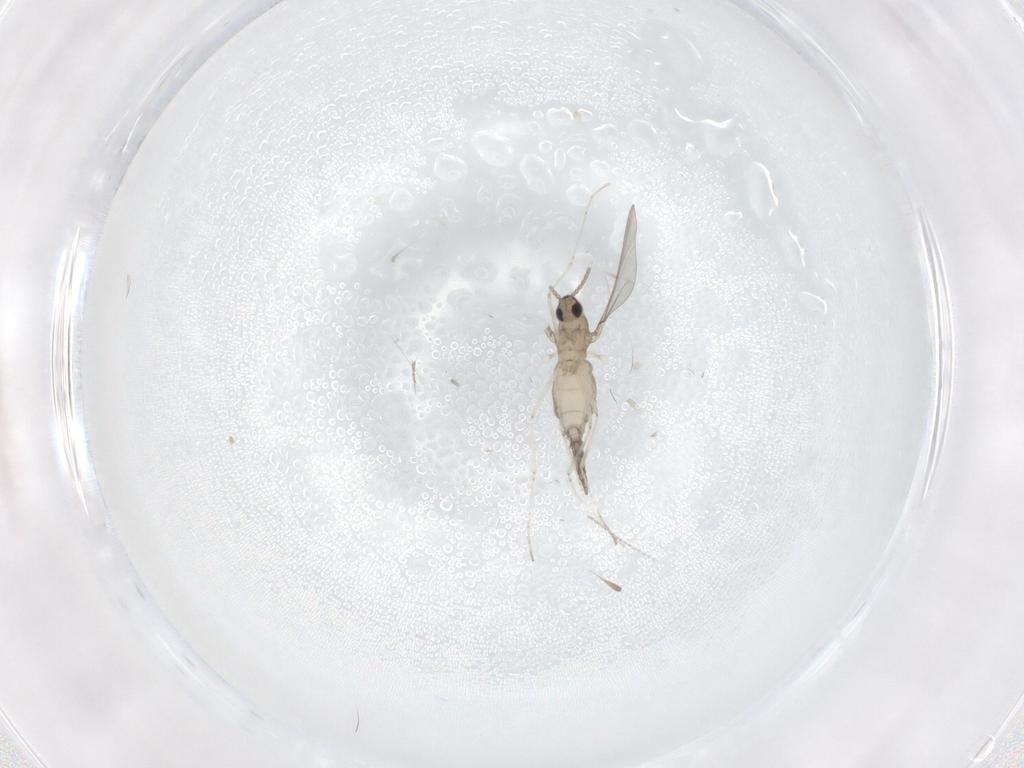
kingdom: Animalia
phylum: Arthropoda
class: Insecta
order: Diptera
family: Cecidomyiidae
